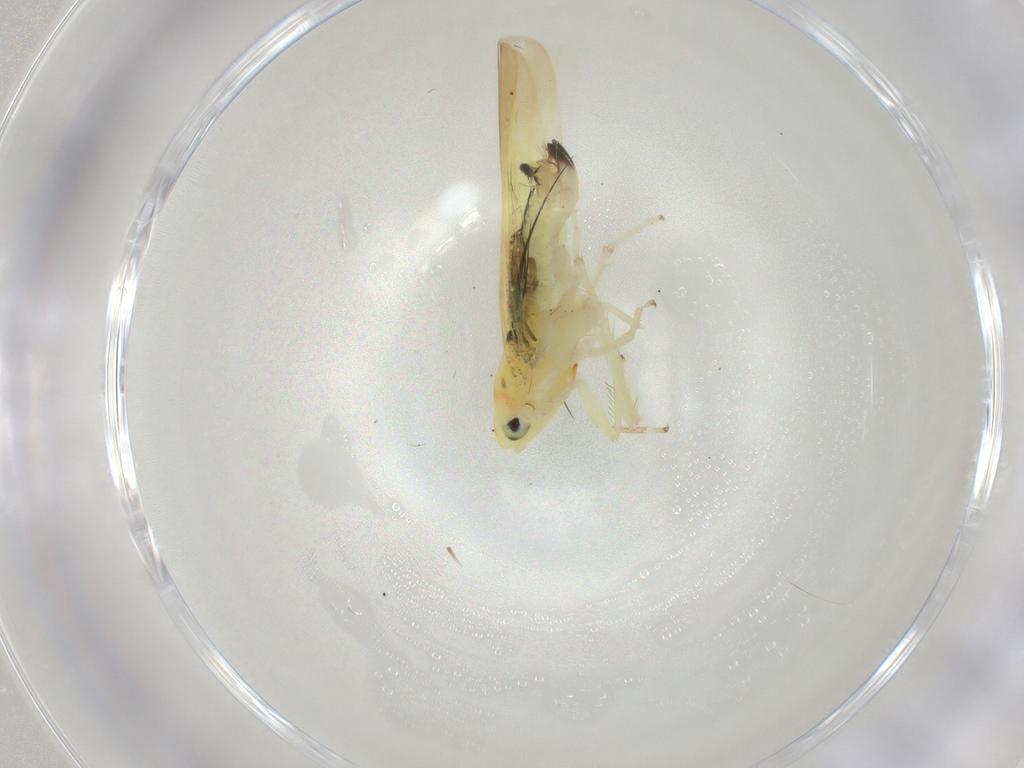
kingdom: Animalia
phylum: Arthropoda
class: Insecta
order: Hemiptera
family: Cicadellidae
